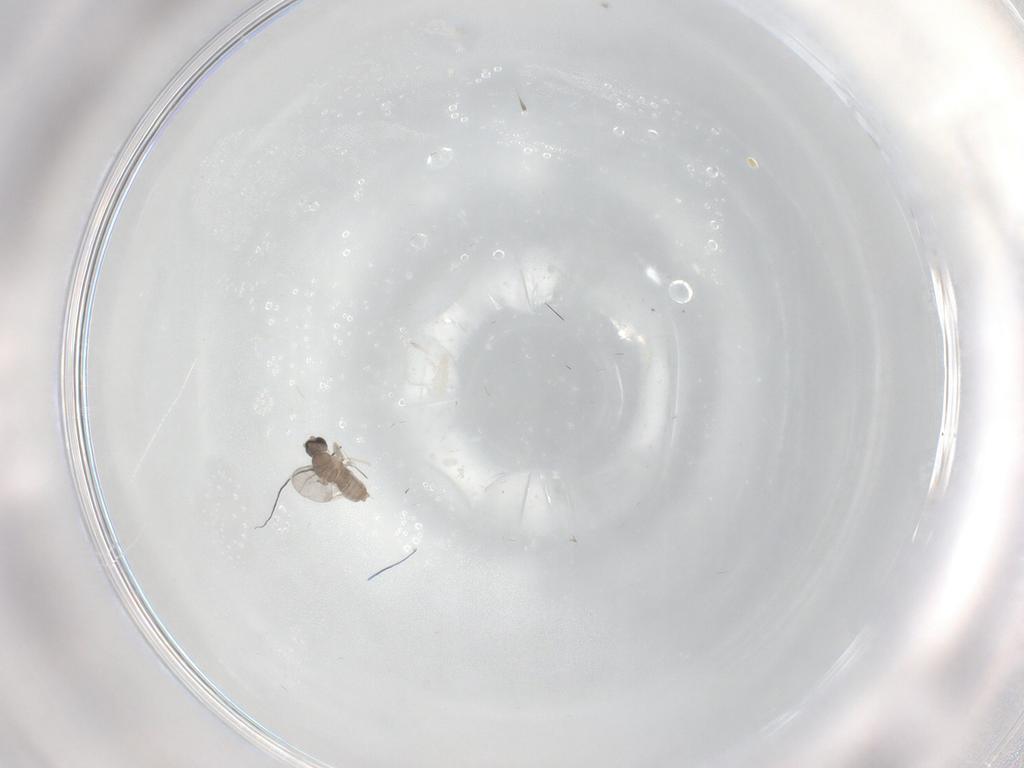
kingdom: Animalia
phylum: Arthropoda
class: Insecta
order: Diptera
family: Cecidomyiidae
